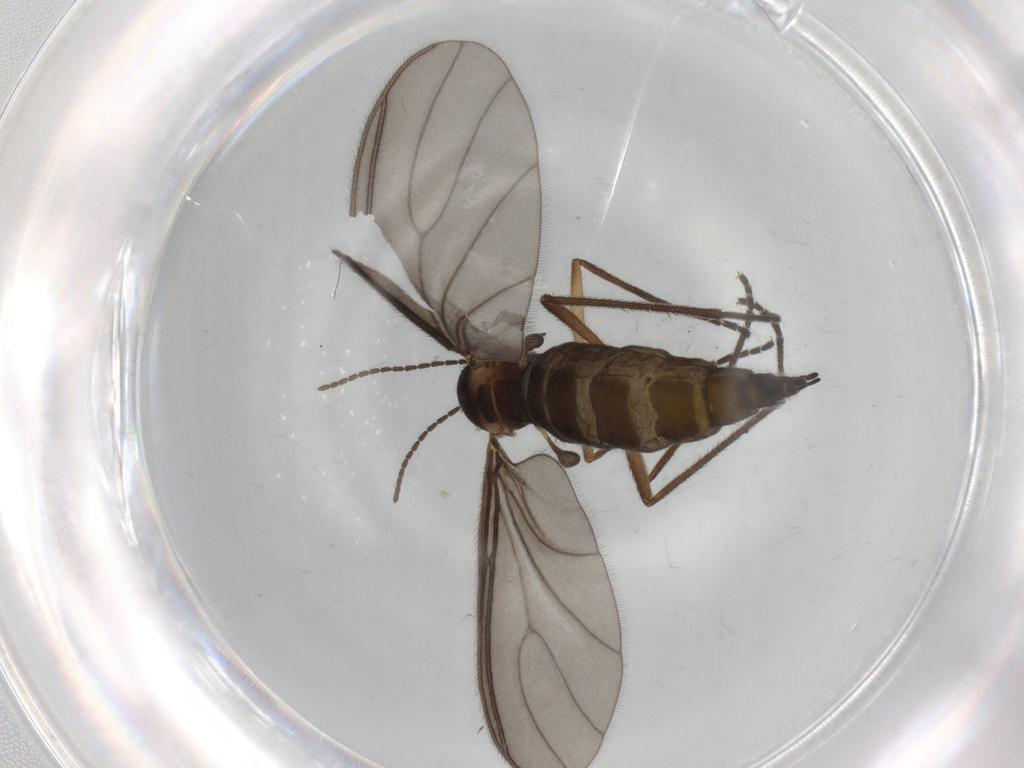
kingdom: Animalia
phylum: Arthropoda
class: Insecta
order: Diptera
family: Sciaridae
